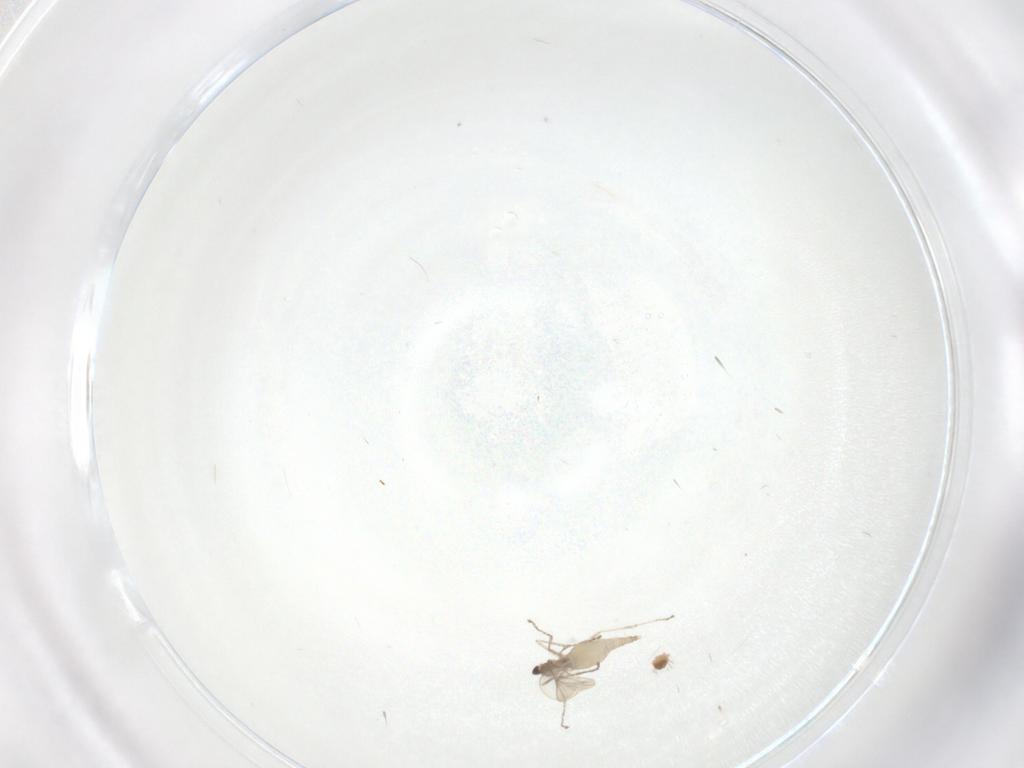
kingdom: Animalia
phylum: Arthropoda
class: Insecta
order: Diptera
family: Cecidomyiidae
